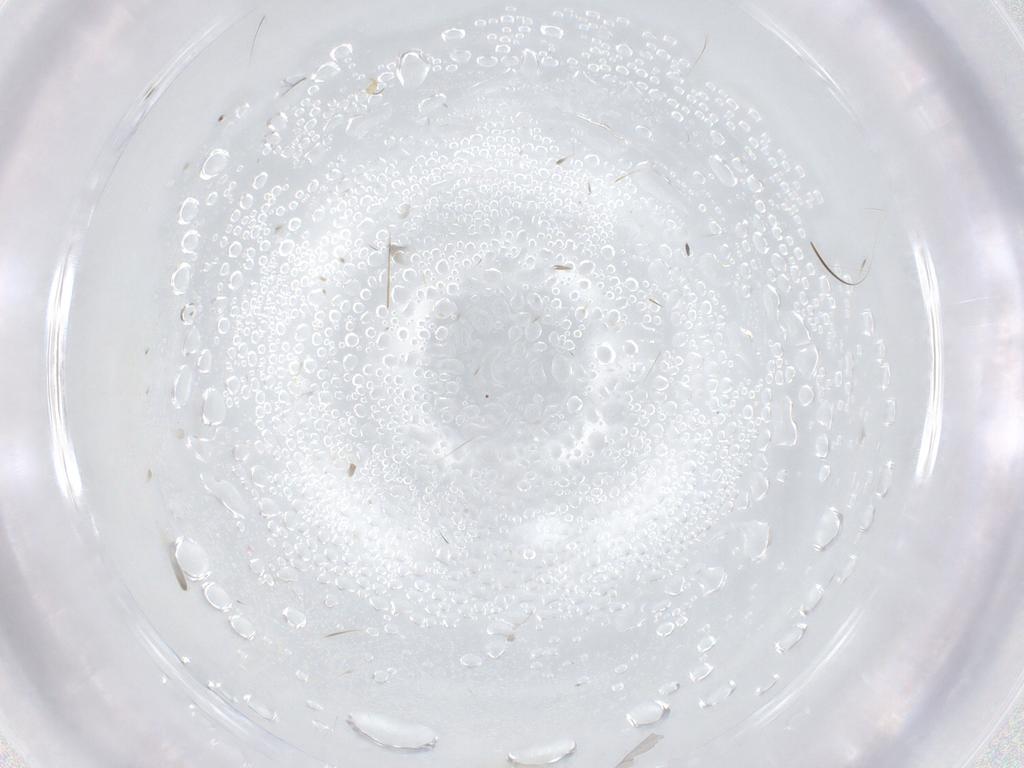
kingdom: Animalia
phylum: Arthropoda
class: Arachnida
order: Trombidiformes
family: Eupodidae
